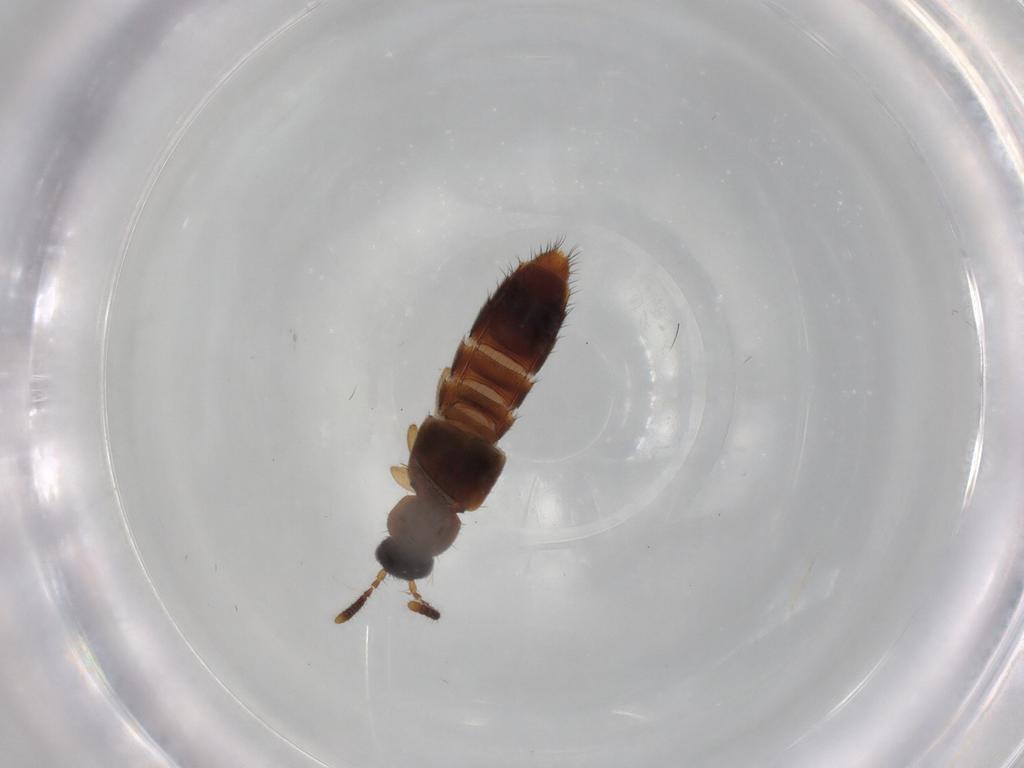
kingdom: Animalia
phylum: Arthropoda
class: Insecta
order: Coleoptera
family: Staphylinidae
